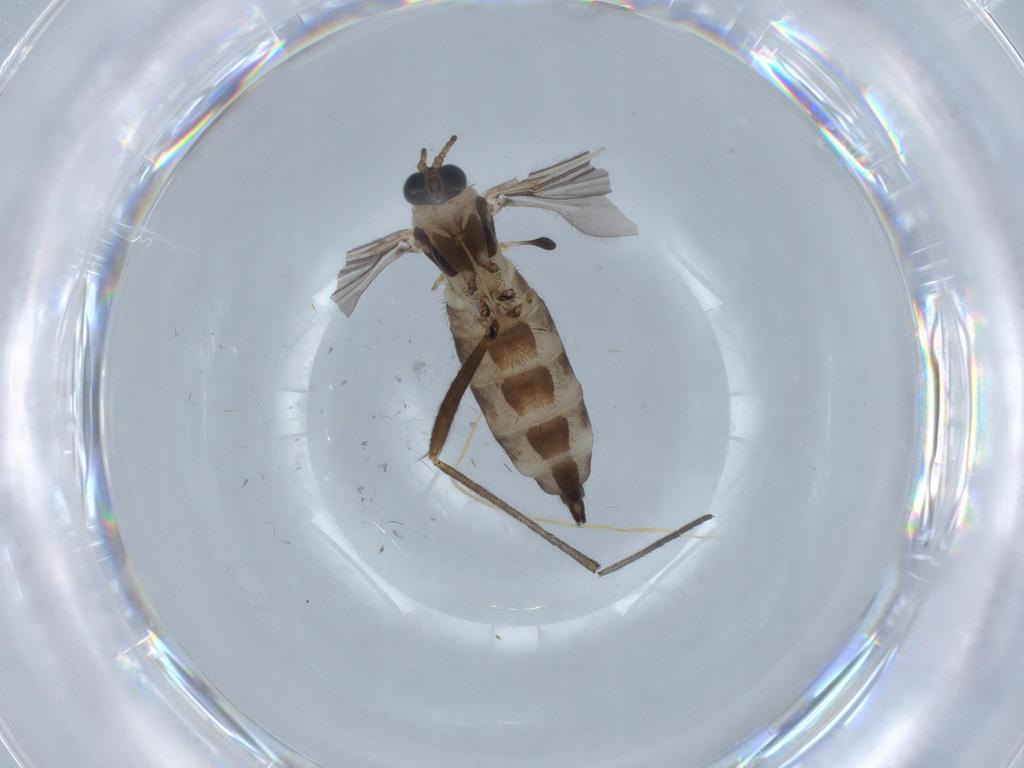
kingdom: Animalia
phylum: Arthropoda
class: Insecta
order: Diptera
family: Sciaridae
